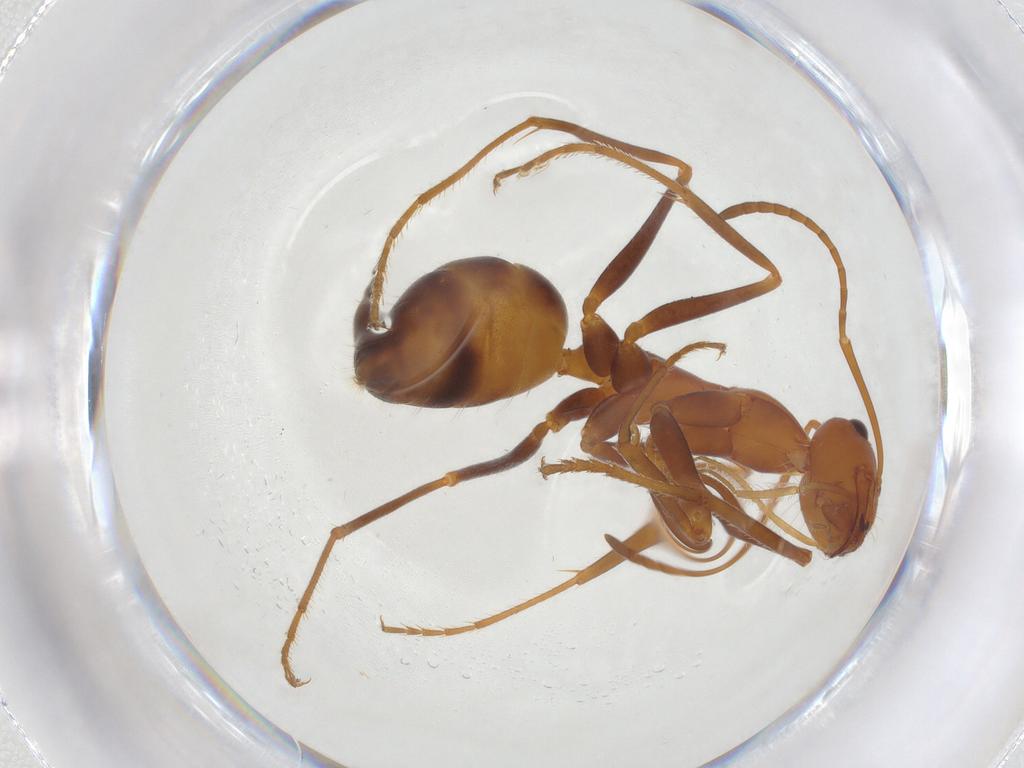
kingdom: Animalia
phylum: Arthropoda
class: Insecta
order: Hymenoptera
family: Formicidae
